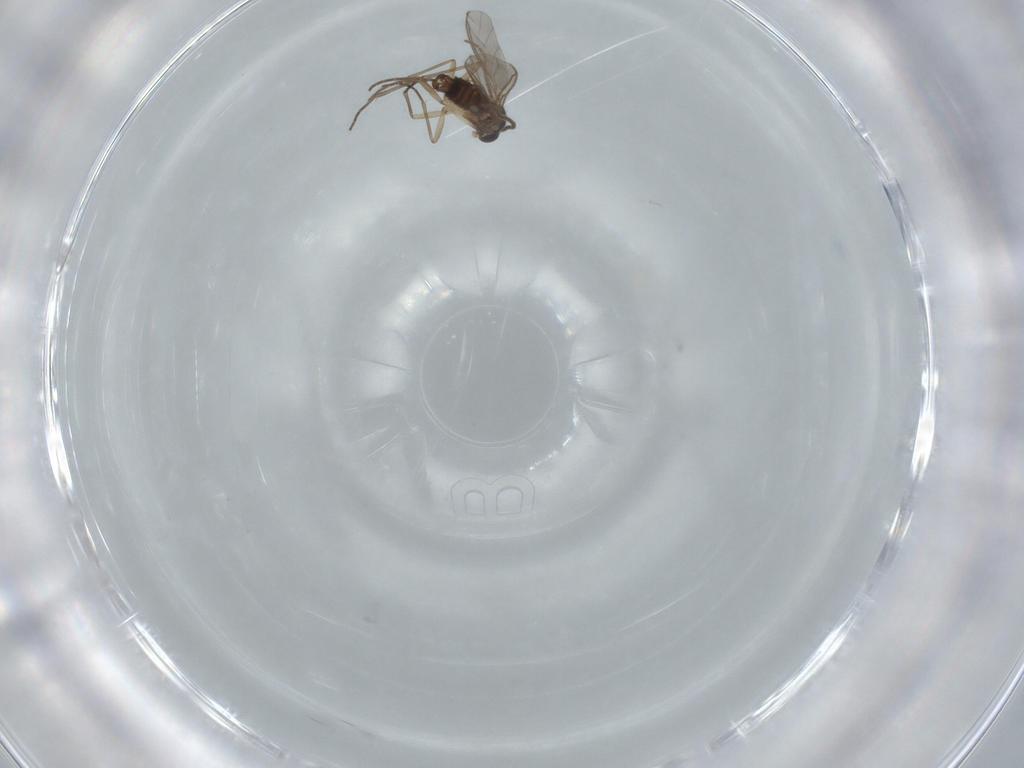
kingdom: Animalia
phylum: Arthropoda
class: Insecta
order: Diptera
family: Sciaridae
